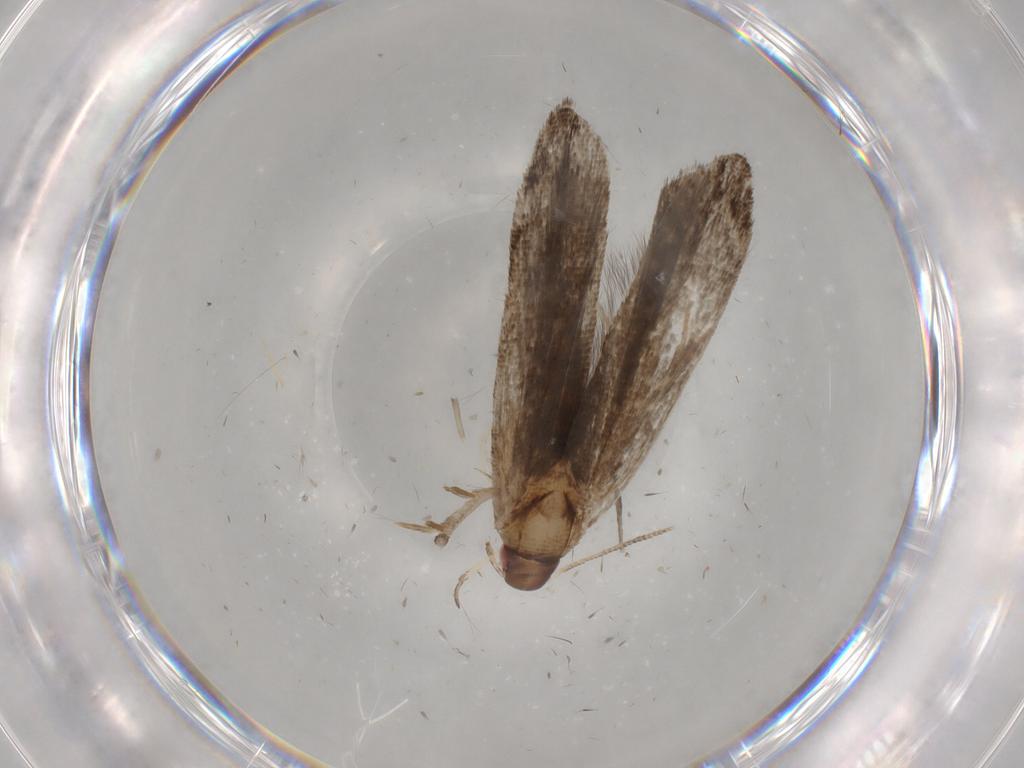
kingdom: Animalia
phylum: Arthropoda
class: Insecta
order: Lepidoptera
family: Gelechiidae
